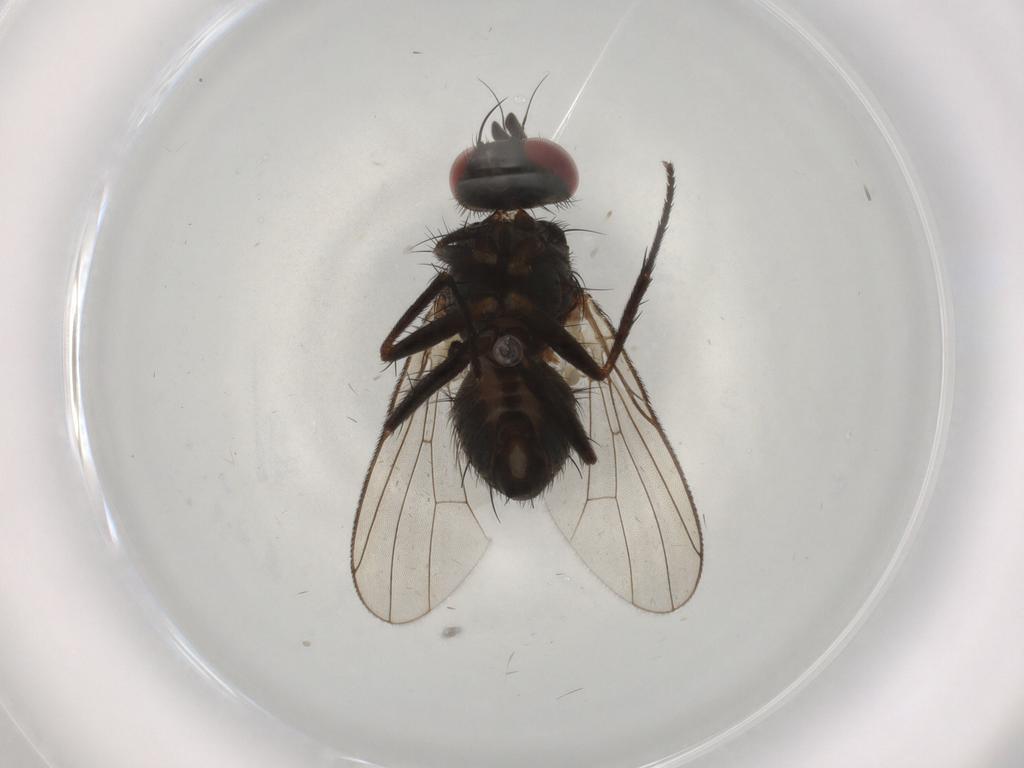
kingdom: Animalia
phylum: Arthropoda
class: Insecta
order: Diptera
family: Muscidae
